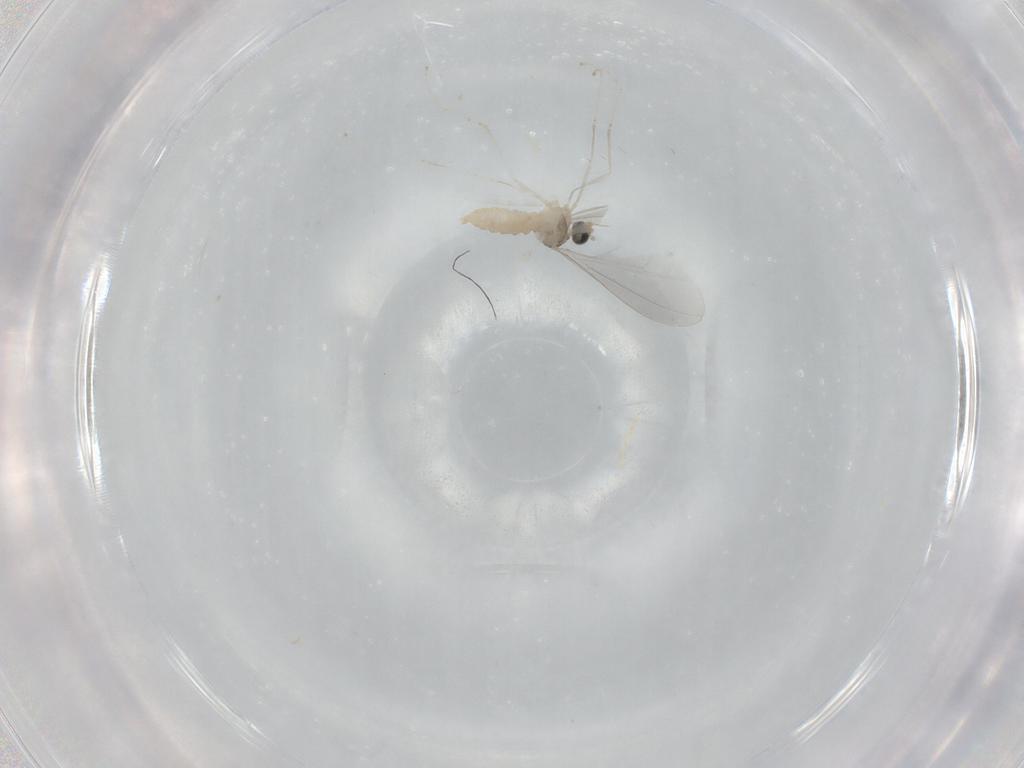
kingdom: Animalia
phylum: Arthropoda
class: Insecta
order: Diptera
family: Cecidomyiidae
